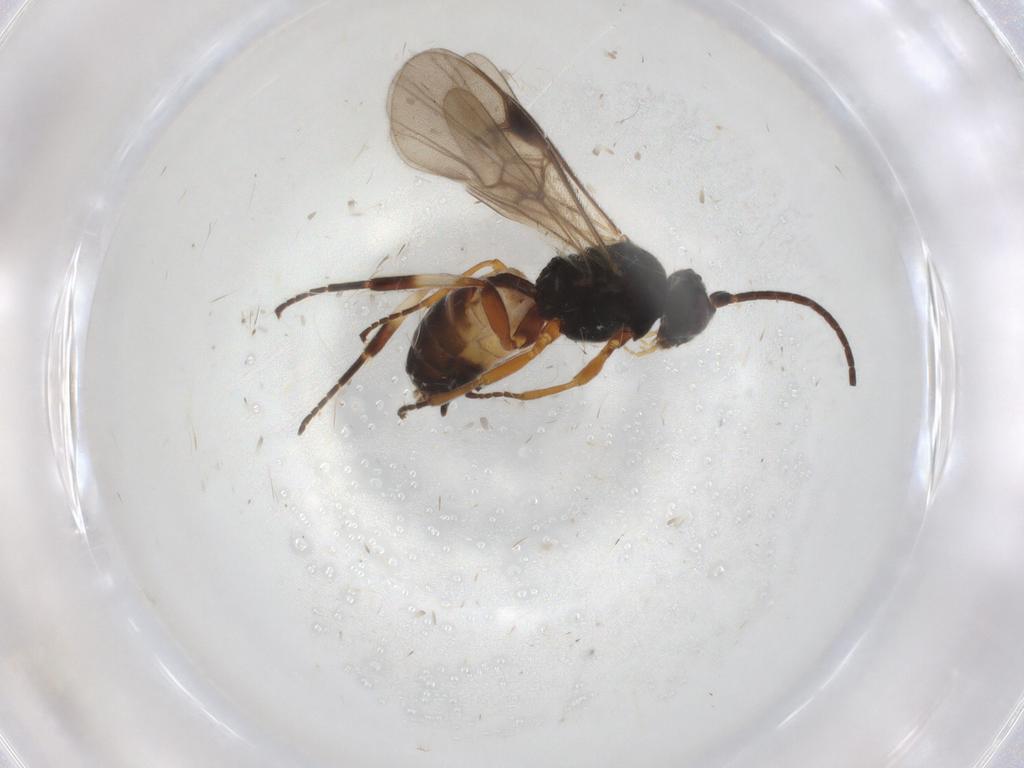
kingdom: Animalia
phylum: Arthropoda
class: Insecta
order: Hymenoptera
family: Braconidae
